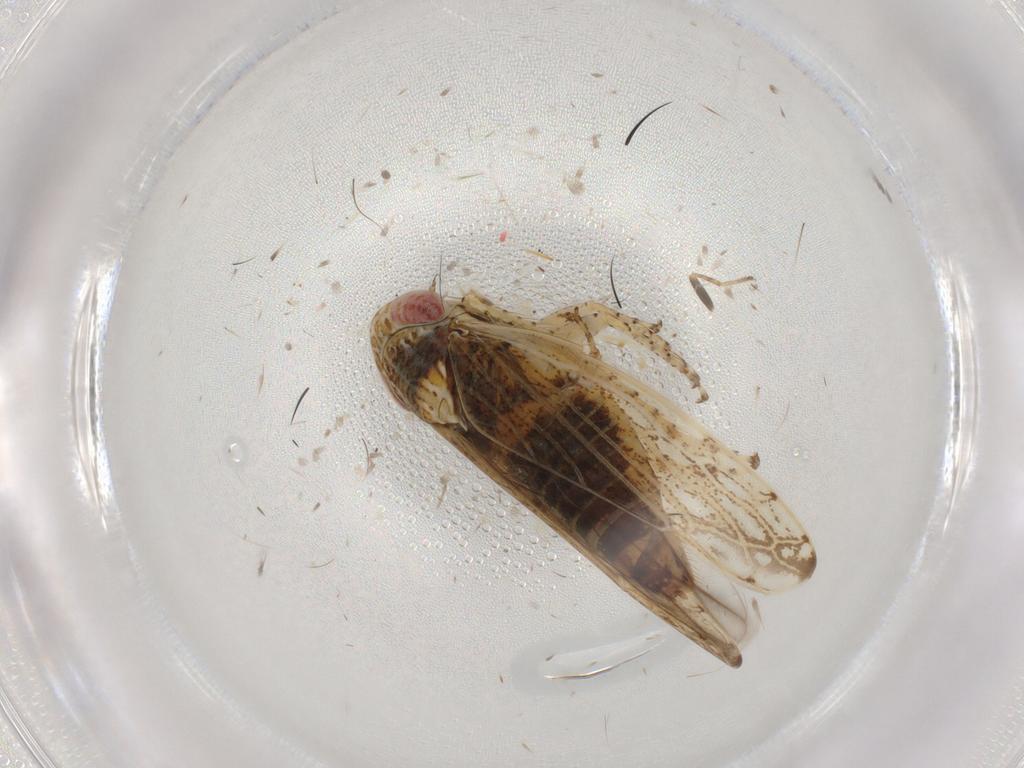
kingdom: Animalia
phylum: Arthropoda
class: Insecta
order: Hemiptera
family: Cicadellidae
